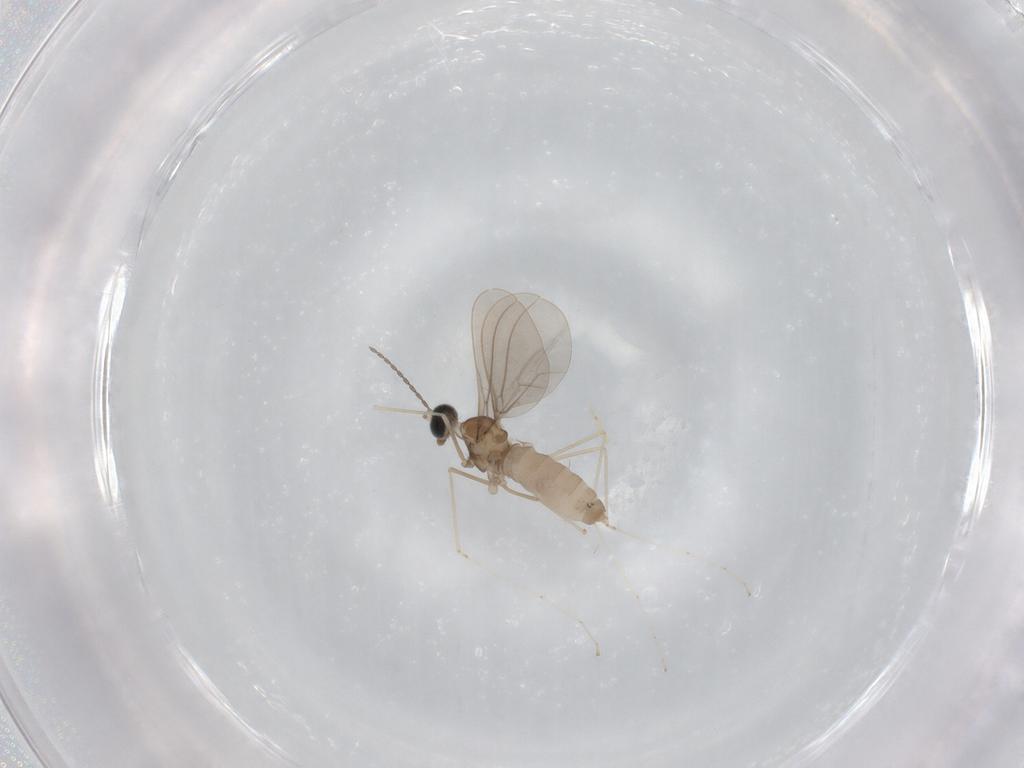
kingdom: Animalia
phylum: Arthropoda
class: Insecta
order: Diptera
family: Cecidomyiidae
